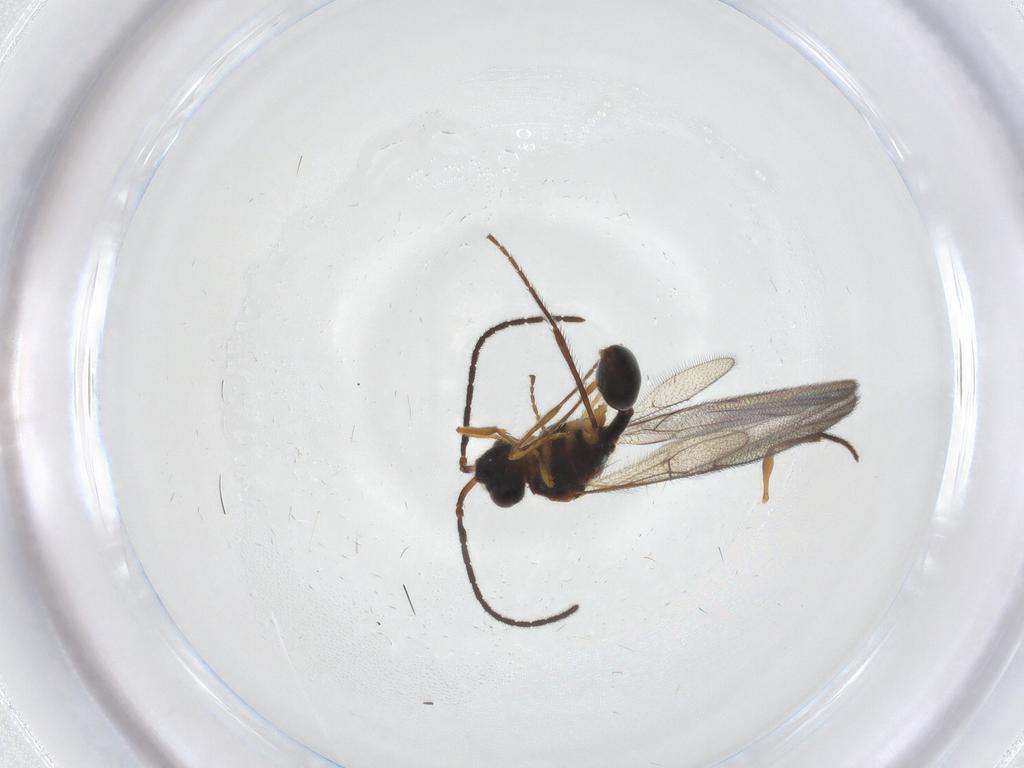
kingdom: Animalia
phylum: Arthropoda
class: Insecta
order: Hymenoptera
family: Diapriidae
